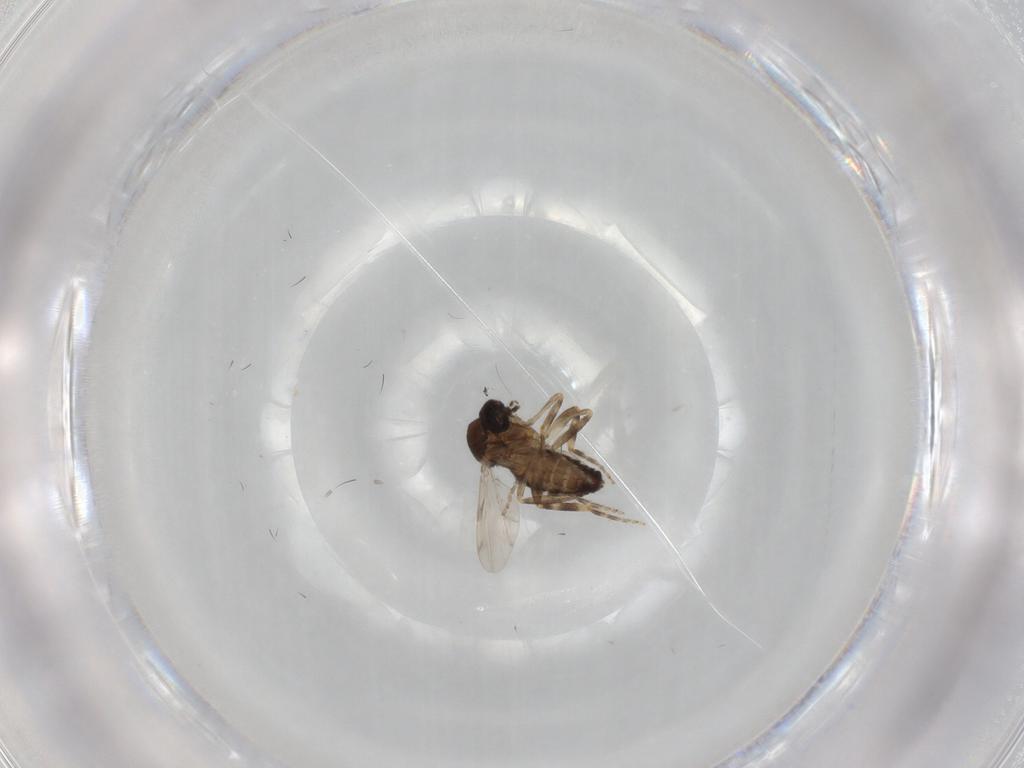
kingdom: Animalia
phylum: Arthropoda
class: Insecta
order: Diptera
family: Ceratopogonidae
